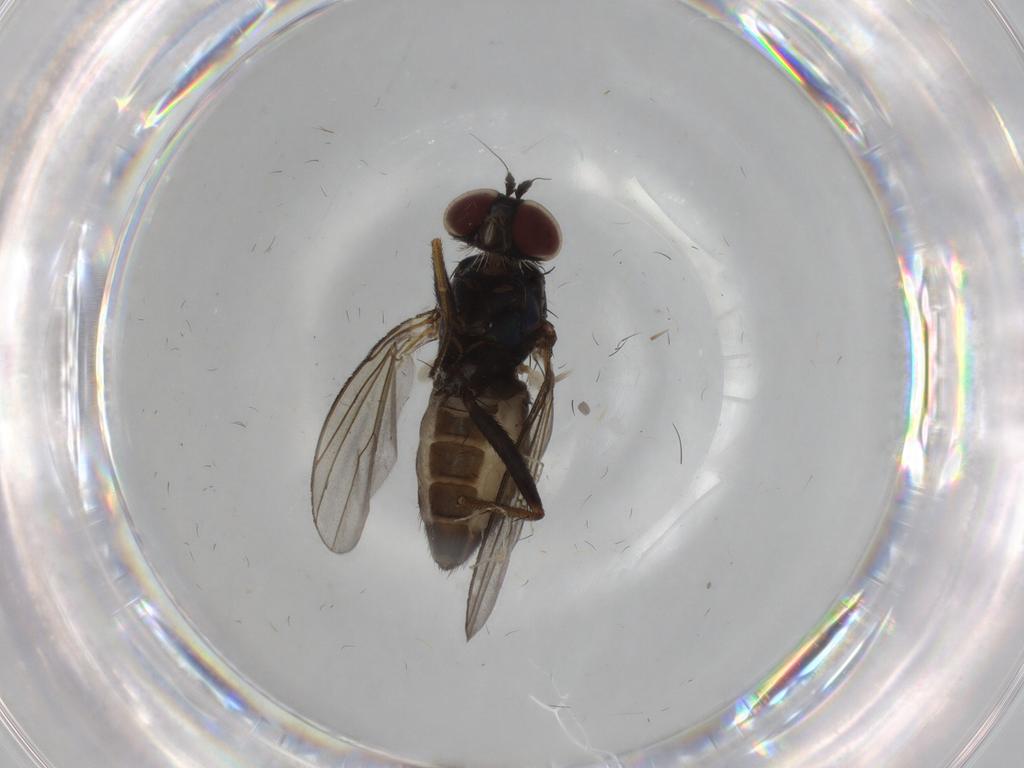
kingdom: Animalia
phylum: Arthropoda
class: Insecta
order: Diptera
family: Dolichopodidae
